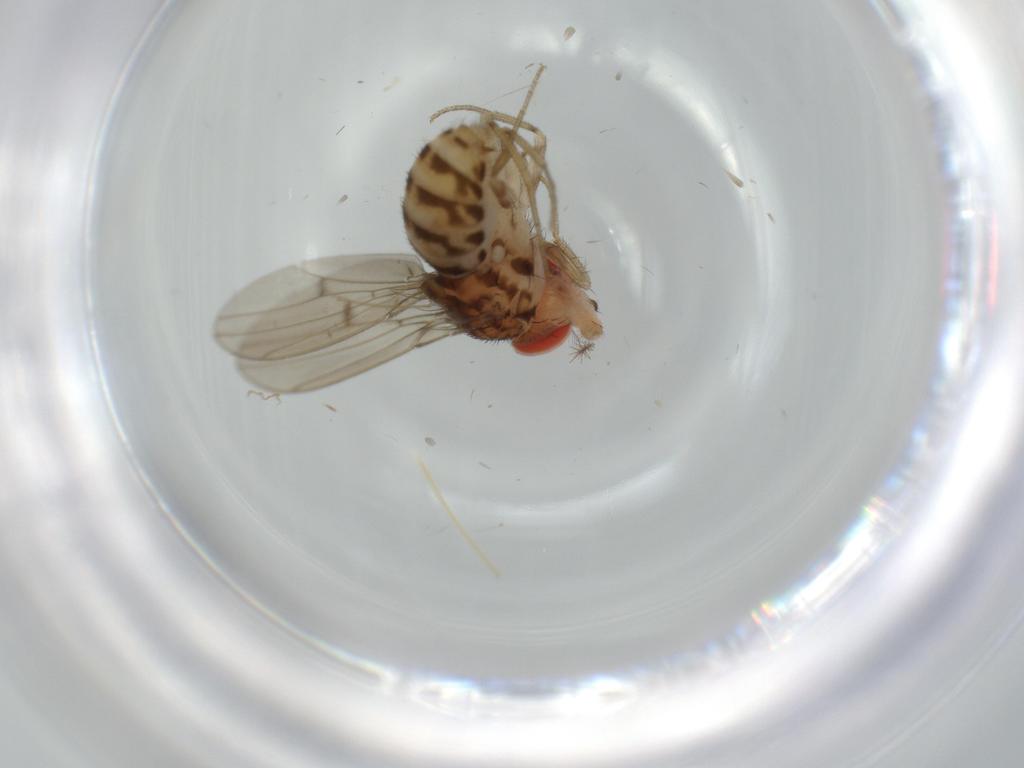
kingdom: Animalia
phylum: Arthropoda
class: Insecta
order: Diptera
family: Drosophilidae
